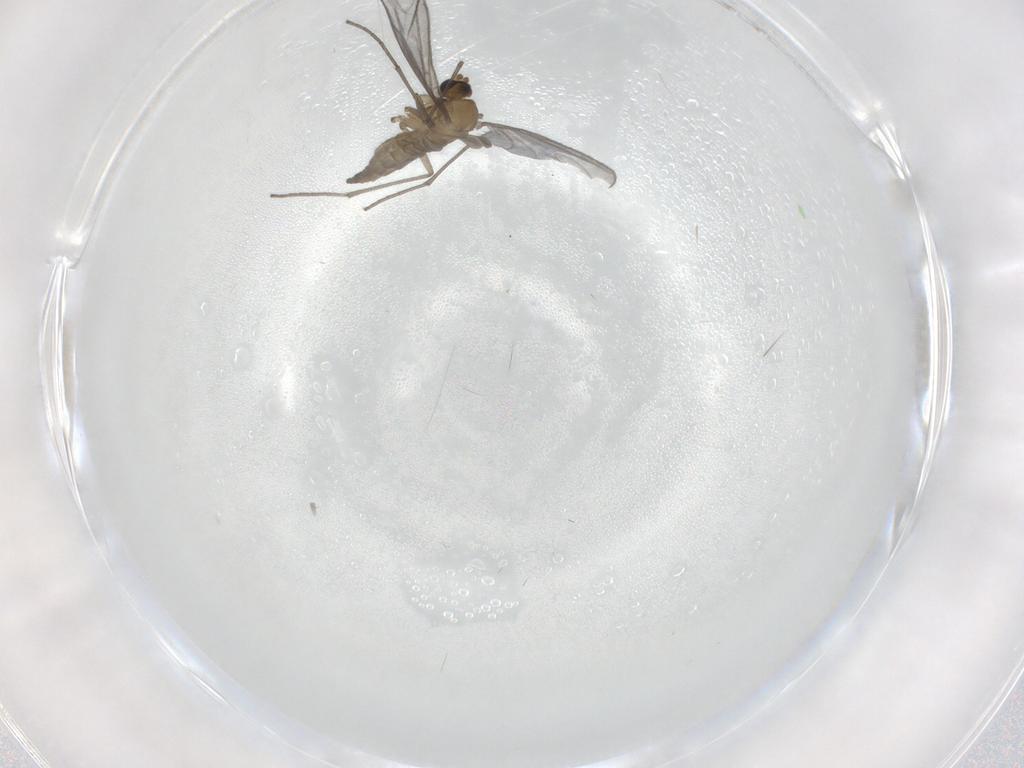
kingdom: Animalia
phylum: Arthropoda
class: Insecta
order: Diptera
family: Sciaridae
